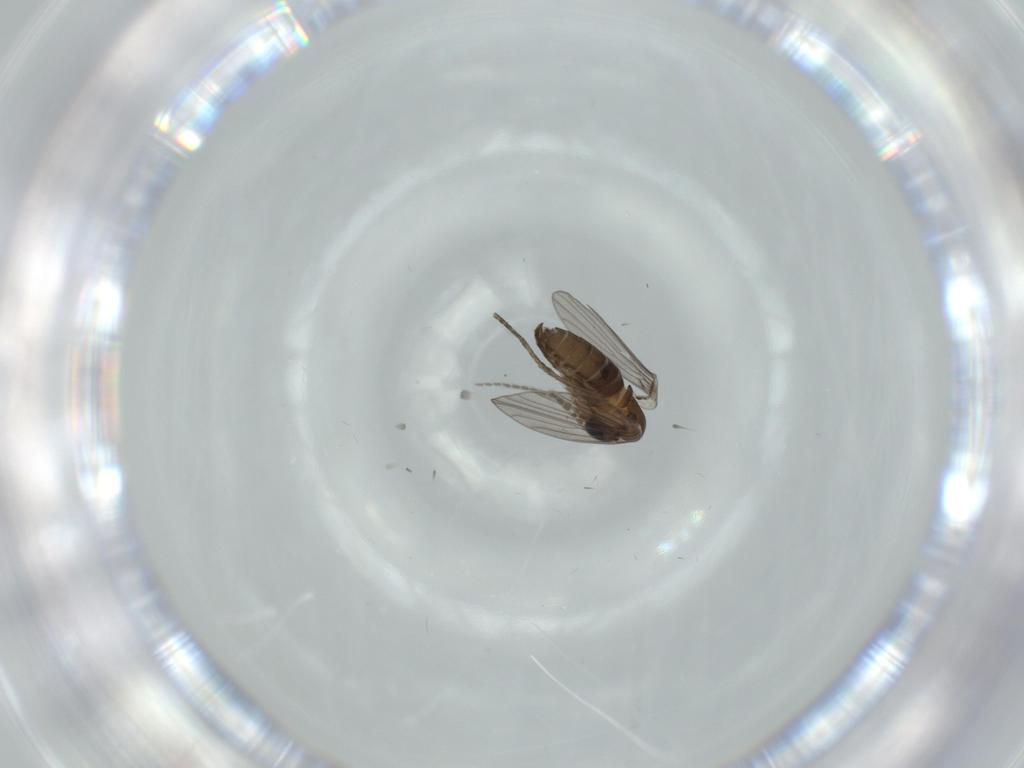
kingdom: Animalia
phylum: Arthropoda
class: Insecta
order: Diptera
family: Psychodidae
